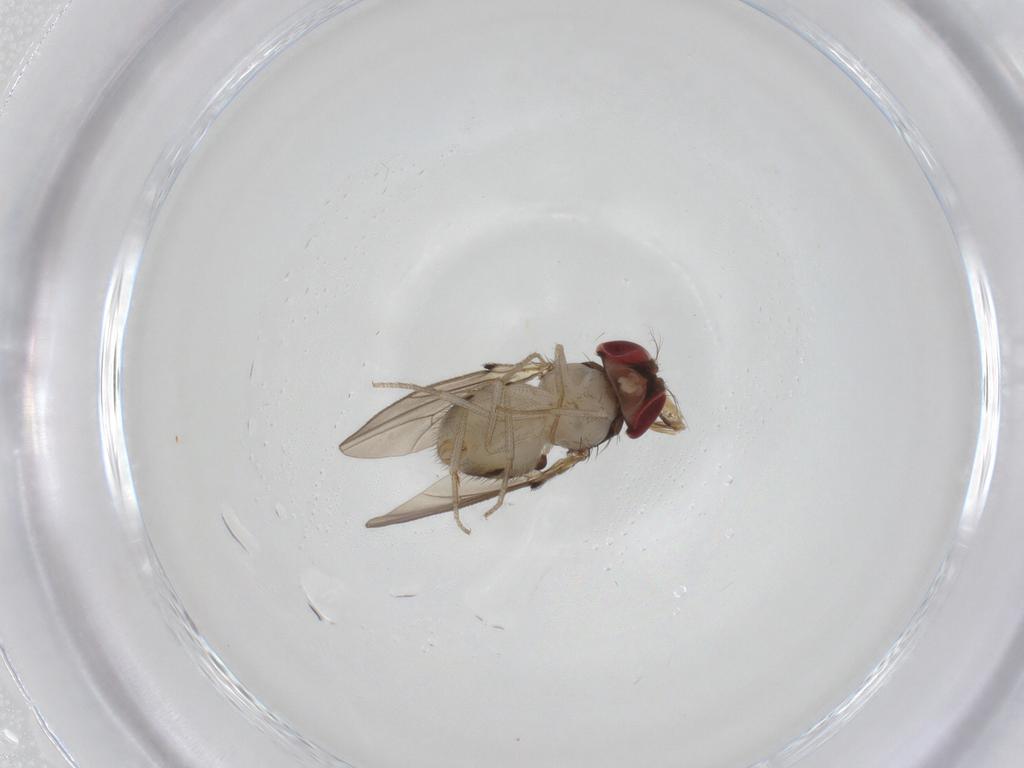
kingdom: Animalia
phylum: Arthropoda
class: Insecta
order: Diptera
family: Drosophilidae
